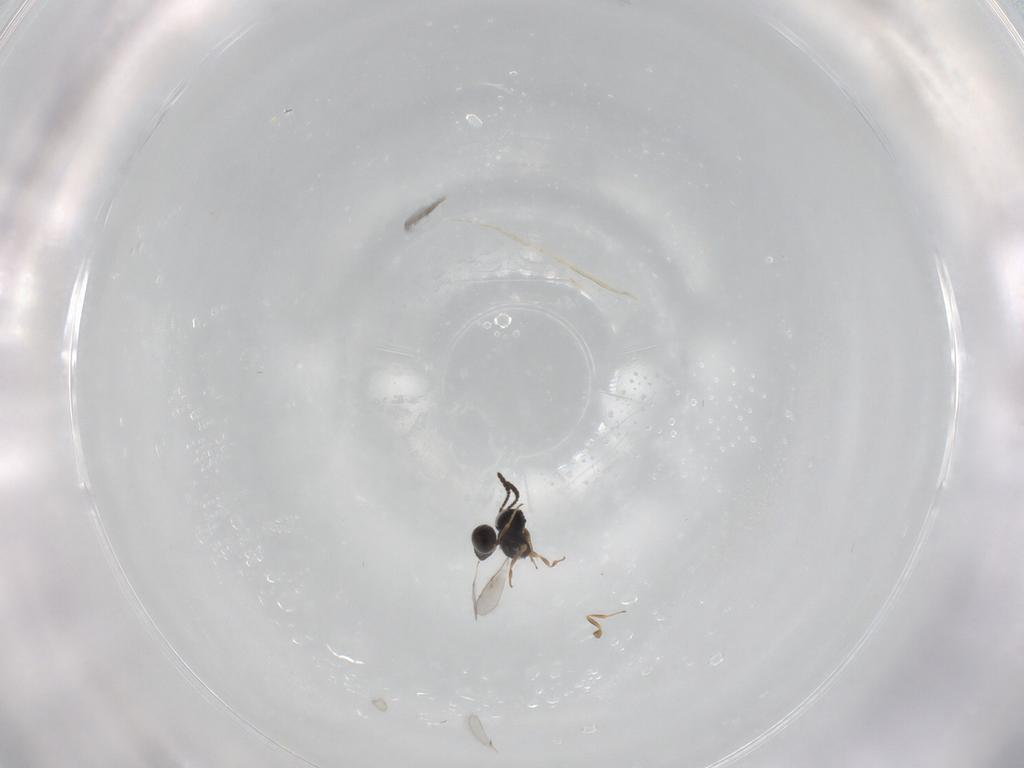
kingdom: Animalia
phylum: Arthropoda
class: Insecta
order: Hymenoptera
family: Scelionidae
